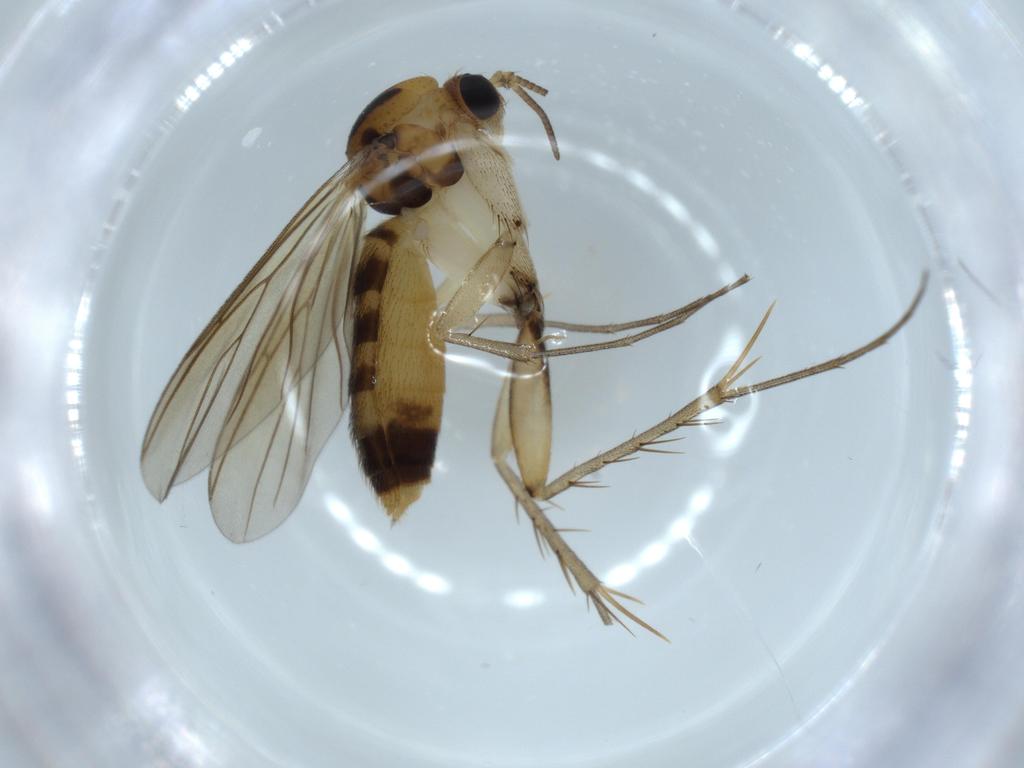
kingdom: Animalia
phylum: Arthropoda
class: Insecta
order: Diptera
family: Mycetophilidae
